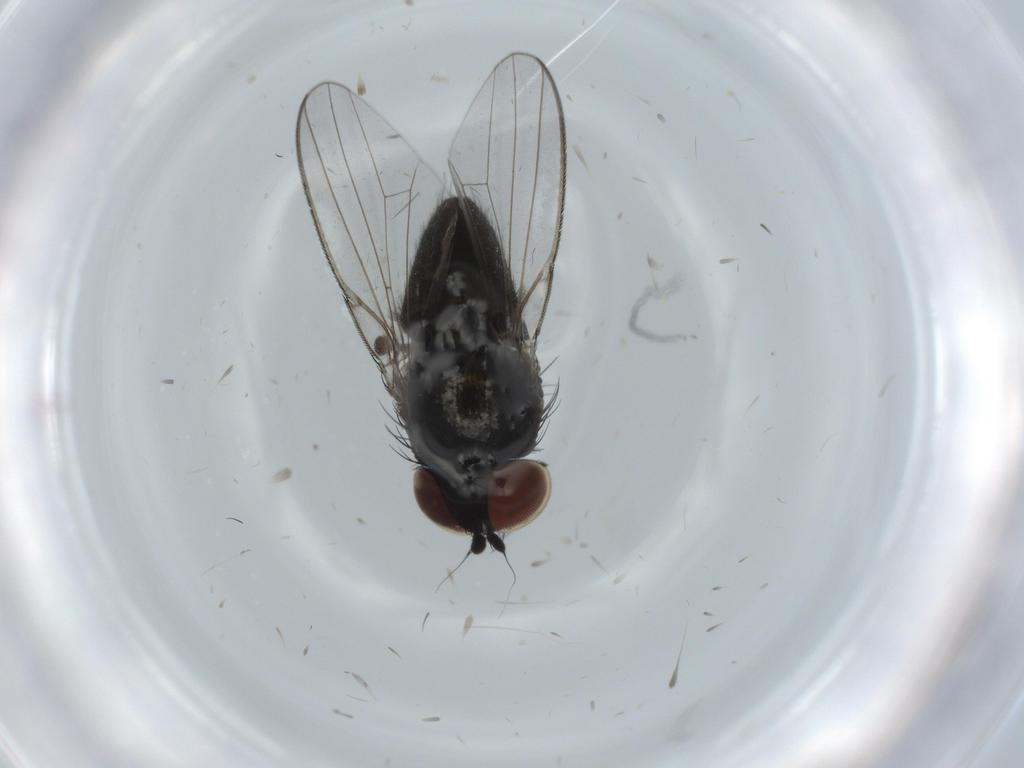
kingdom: Animalia
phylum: Arthropoda
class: Insecta
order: Diptera
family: Milichiidae
